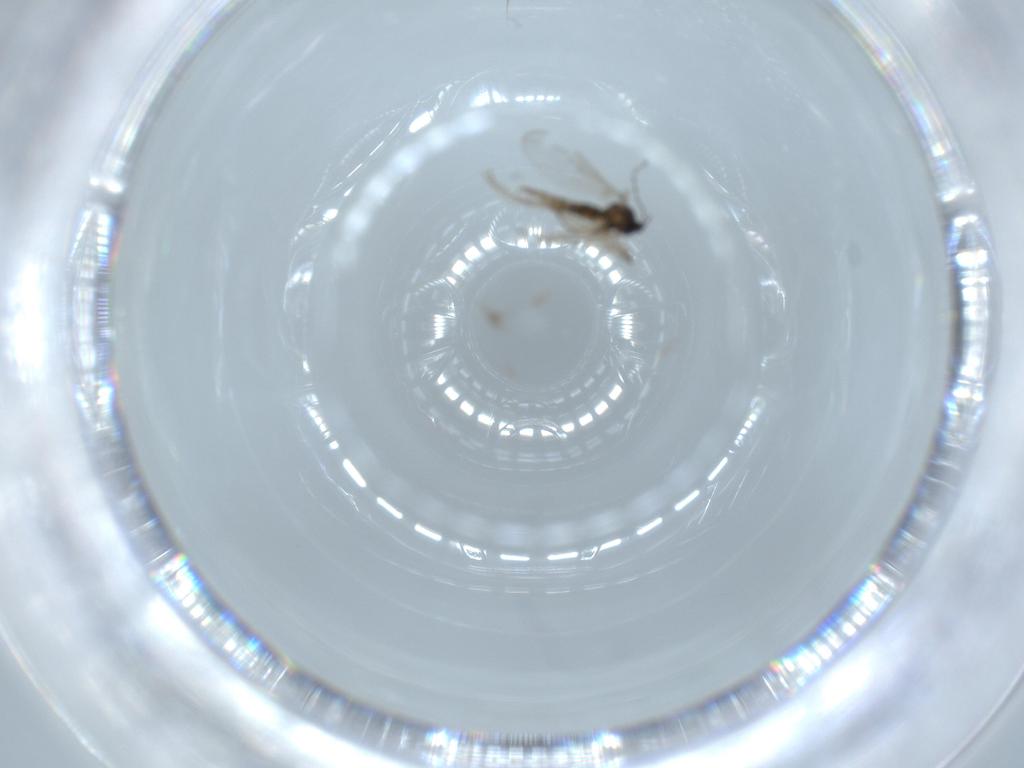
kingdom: Animalia
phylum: Arthropoda
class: Insecta
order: Diptera
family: Cecidomyiidae
